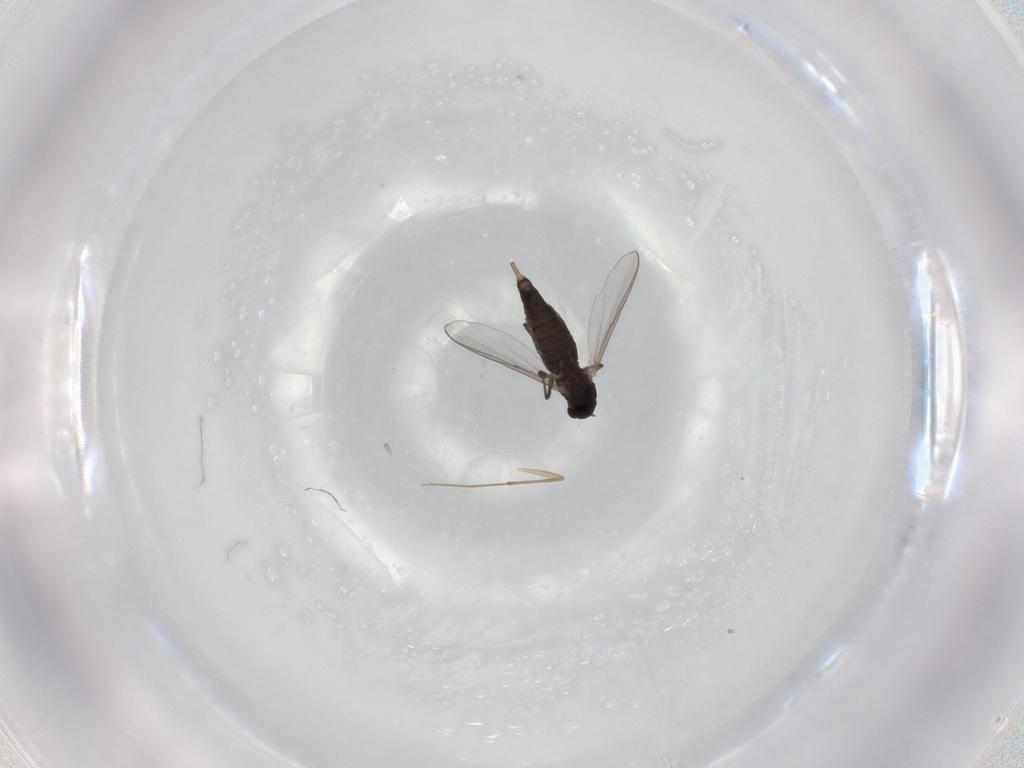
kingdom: Animalia
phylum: Arthropoda
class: Insecta
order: Diptera
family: Chironomidae
